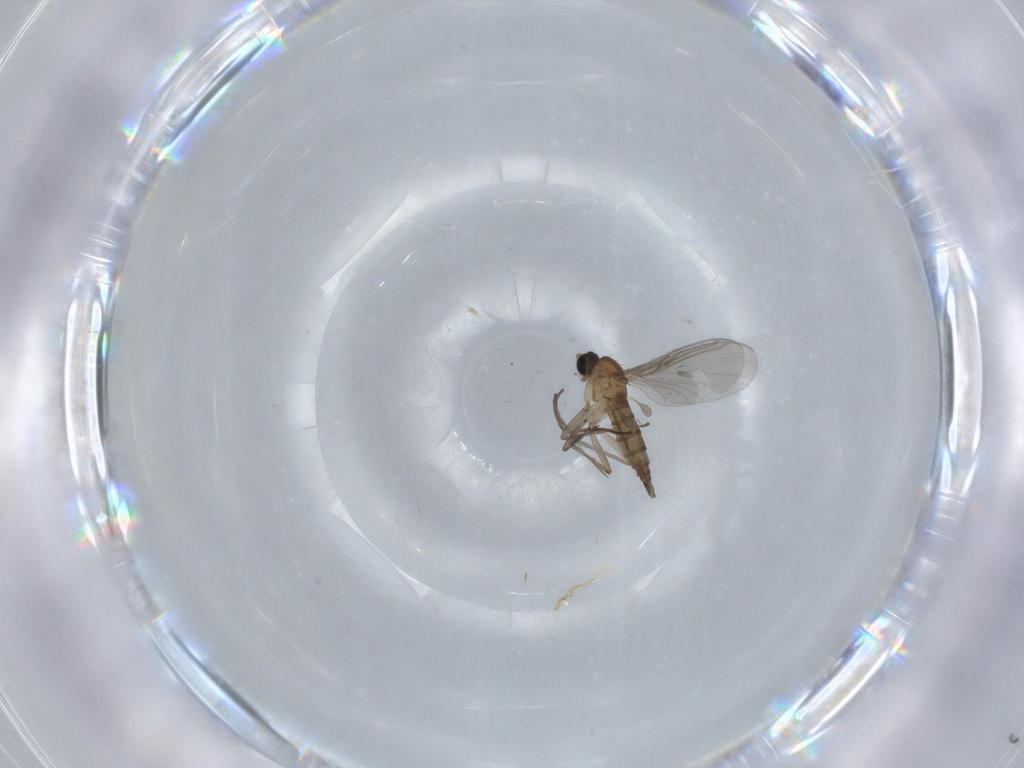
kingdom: Animalia
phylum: Arthropoda
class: Insecta
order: Diptera
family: Sciaridae
